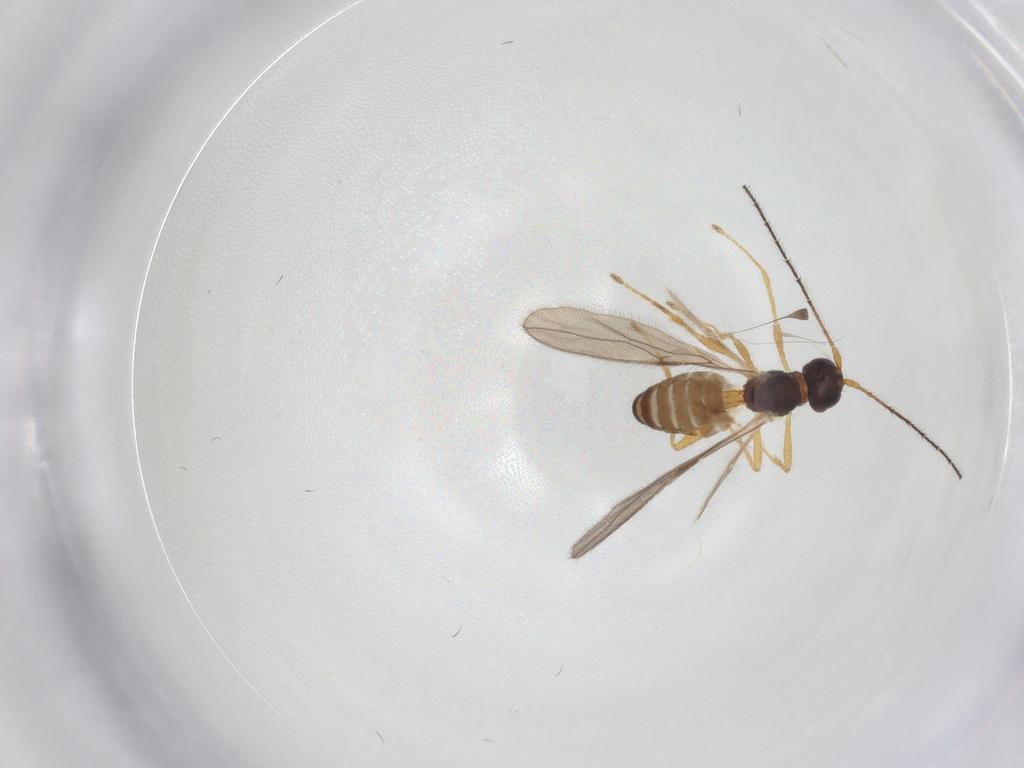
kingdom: Animalia
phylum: Arthropoda
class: Insecta
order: Hymenoptera
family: Braconidae
